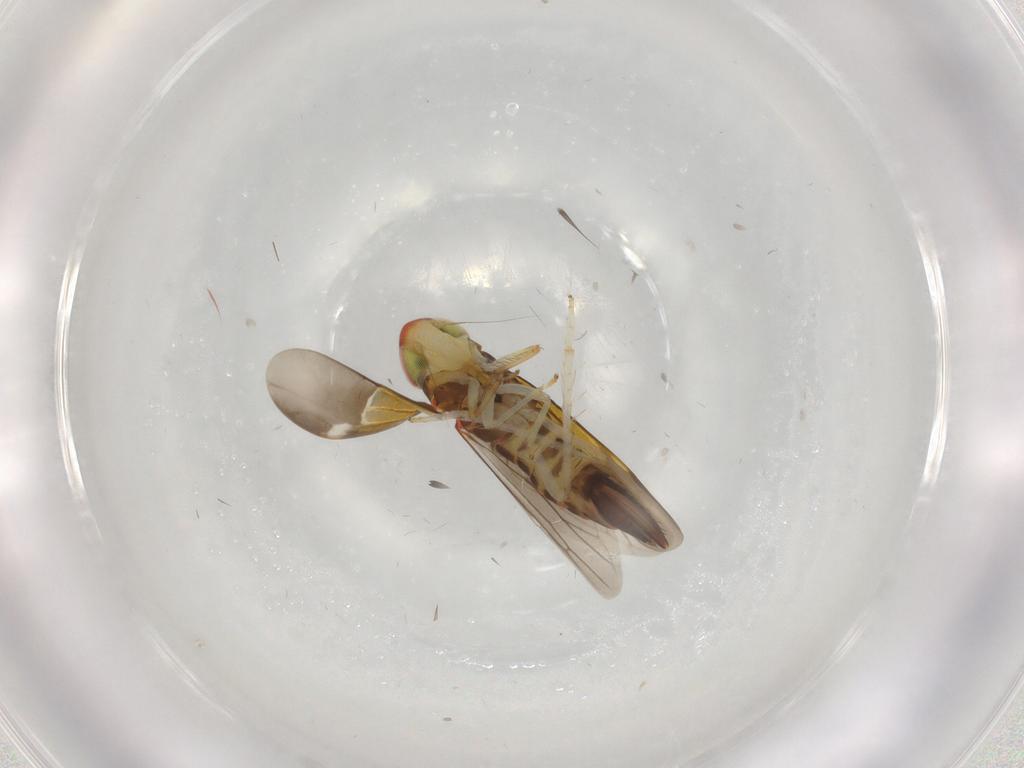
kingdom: Animalia
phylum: Arthropoda
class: Insecta
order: Hemiptera
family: Cicadellidae
